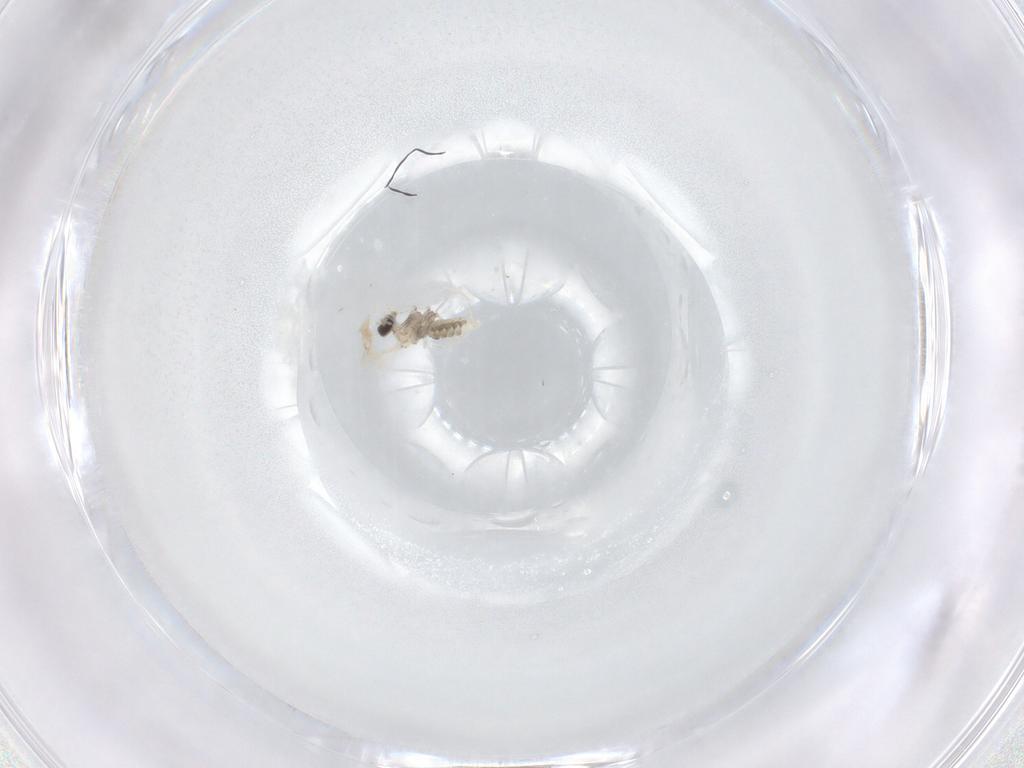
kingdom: Animalia
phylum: Arthropoda
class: Insecta
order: Diptera
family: Cecidomyiidae
